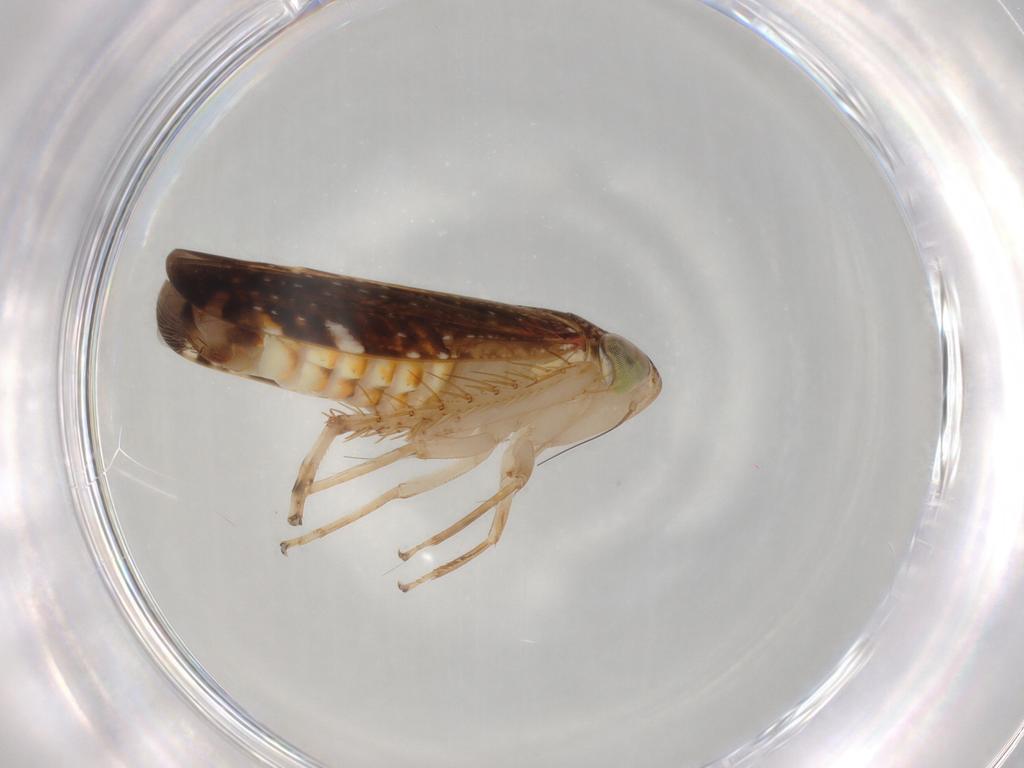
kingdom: Animalia
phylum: Arthropoda
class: Insecta
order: Hemiptera
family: Cicadellidae
